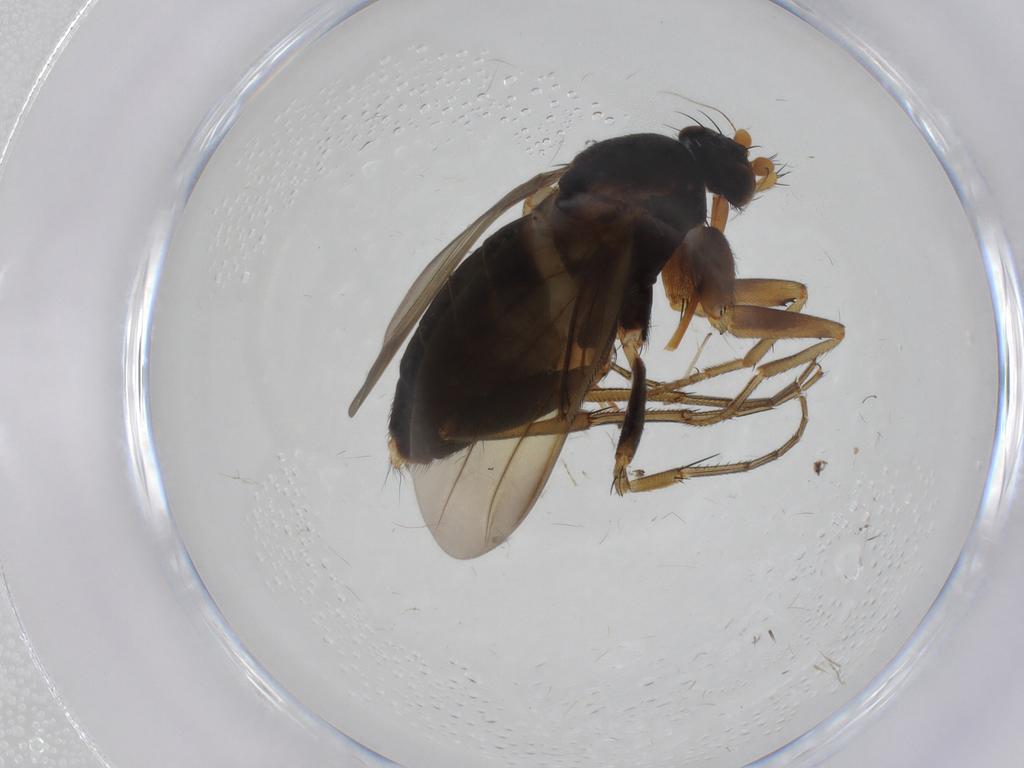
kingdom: Animalia
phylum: Arthropoda
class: Insecta
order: Diptera
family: Phoridae
